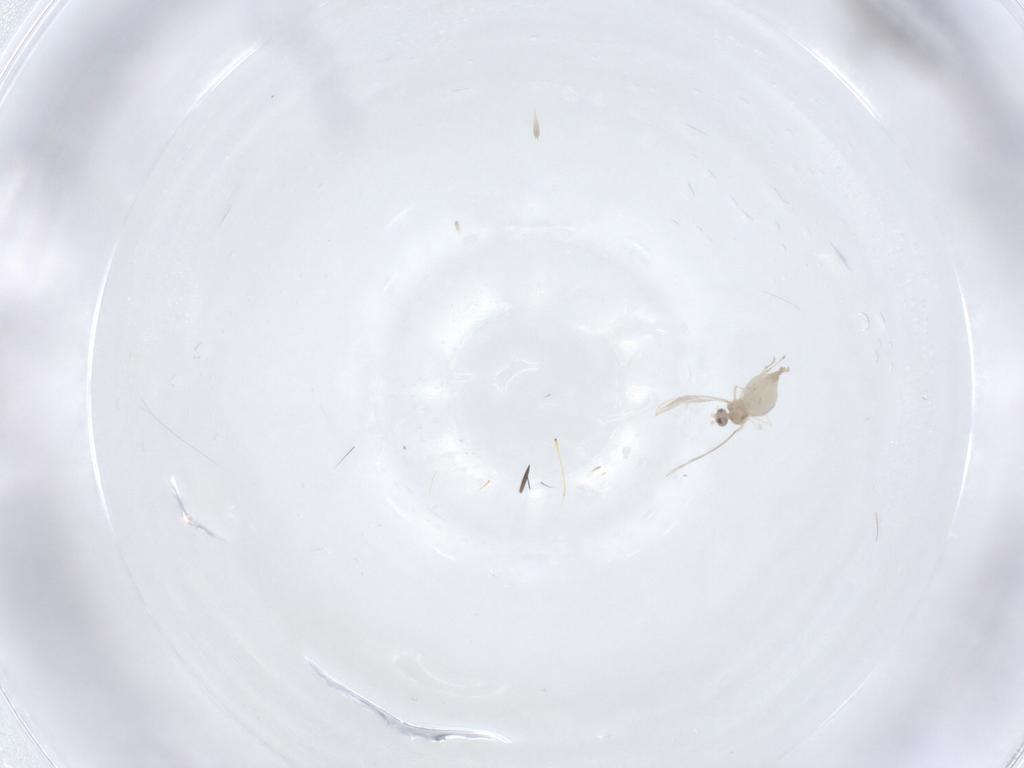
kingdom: Animalia
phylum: Arthropoda
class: Insecta
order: Diptera
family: Cecidomyiidae
